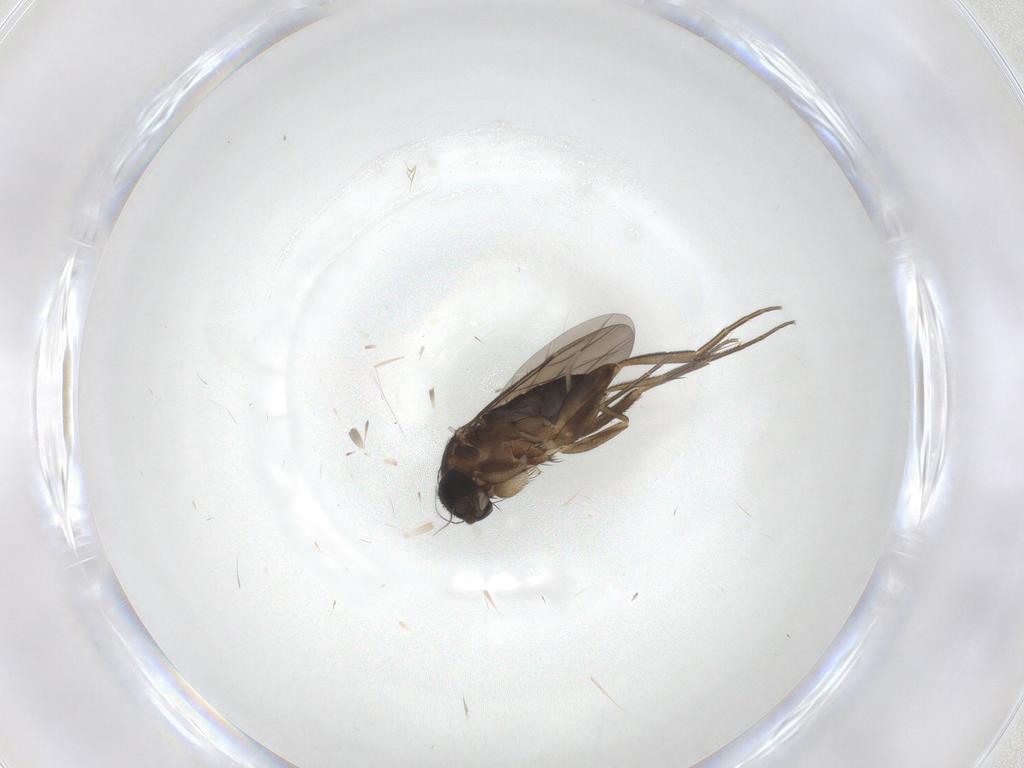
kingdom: Animalia
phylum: Arthropoda
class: Insecta
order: Diptera
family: Phoridae
